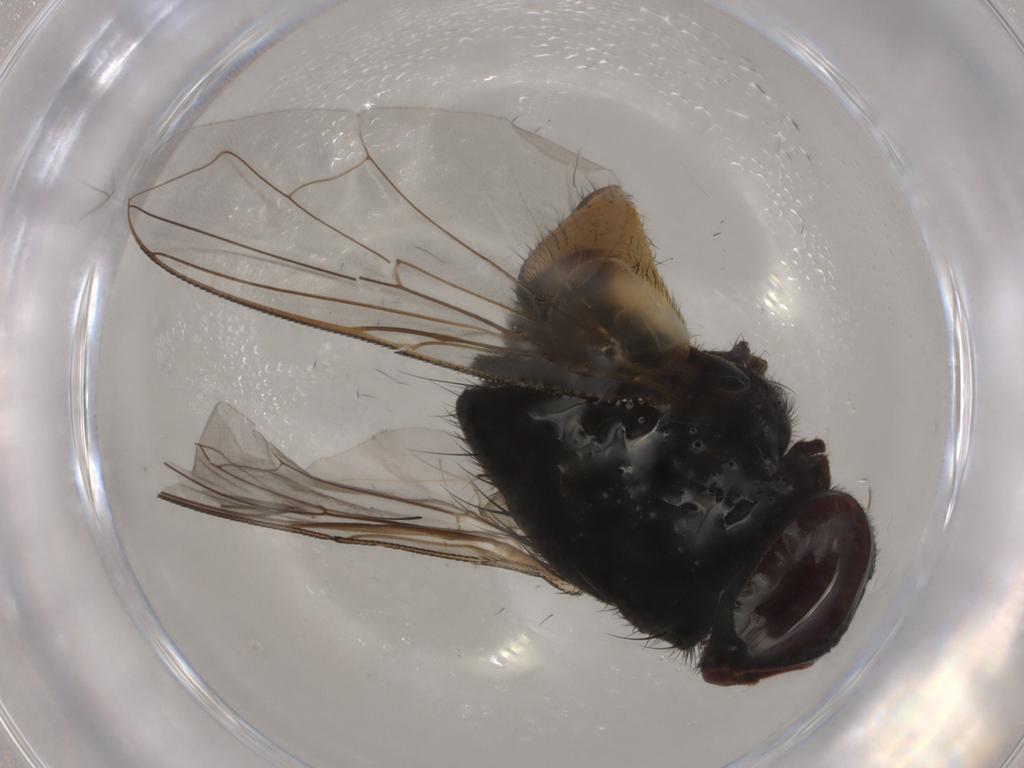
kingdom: Animalia
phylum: Arthropoda
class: Insecta
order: Diptera
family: Muscidae
